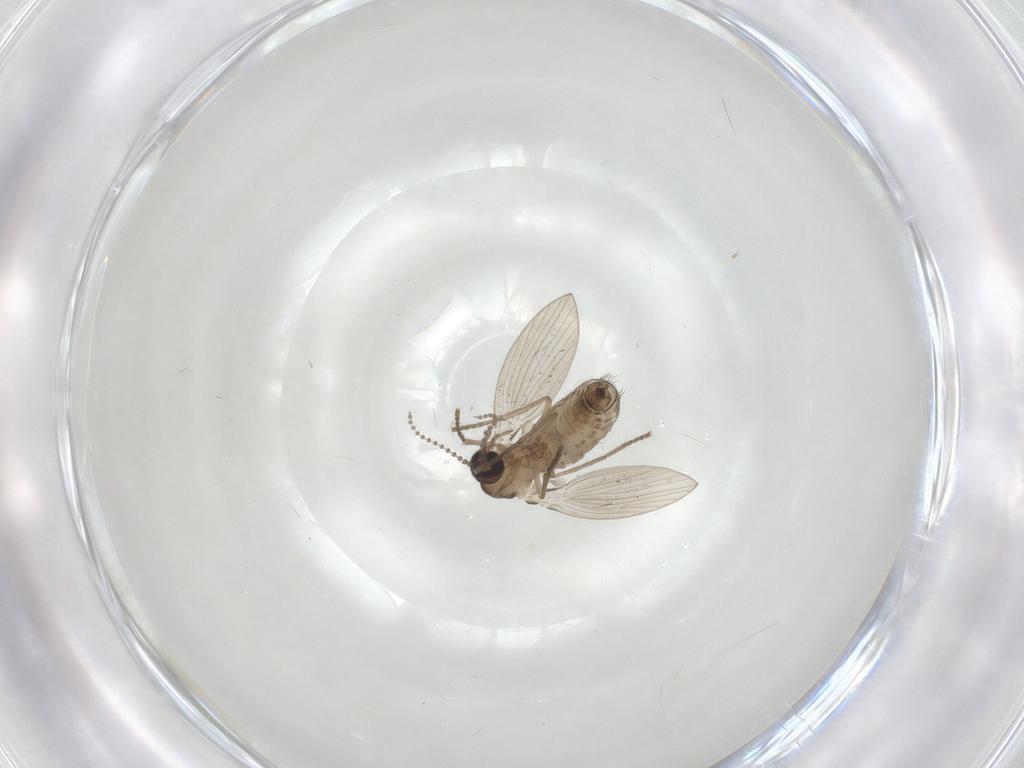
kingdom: Animalia
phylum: Arthropoda
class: Insecta
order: Diptera
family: Psychodidae
